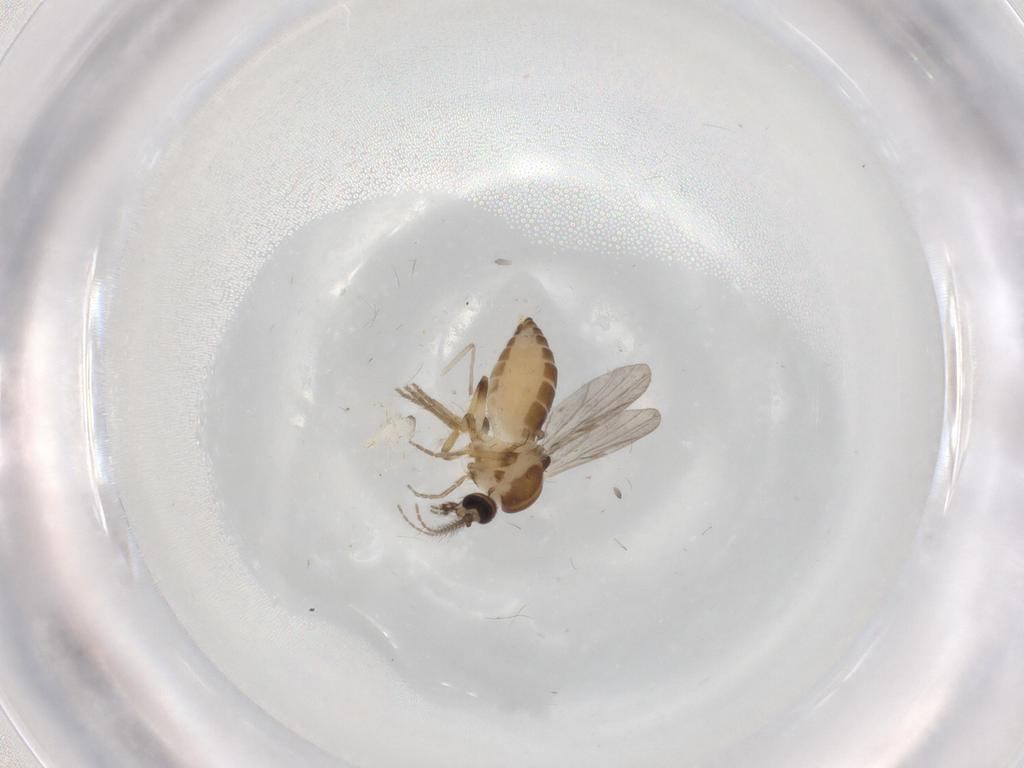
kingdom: Animalia
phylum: Arthropoda
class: Insecta
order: Diptera
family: Ceratopogonidae
